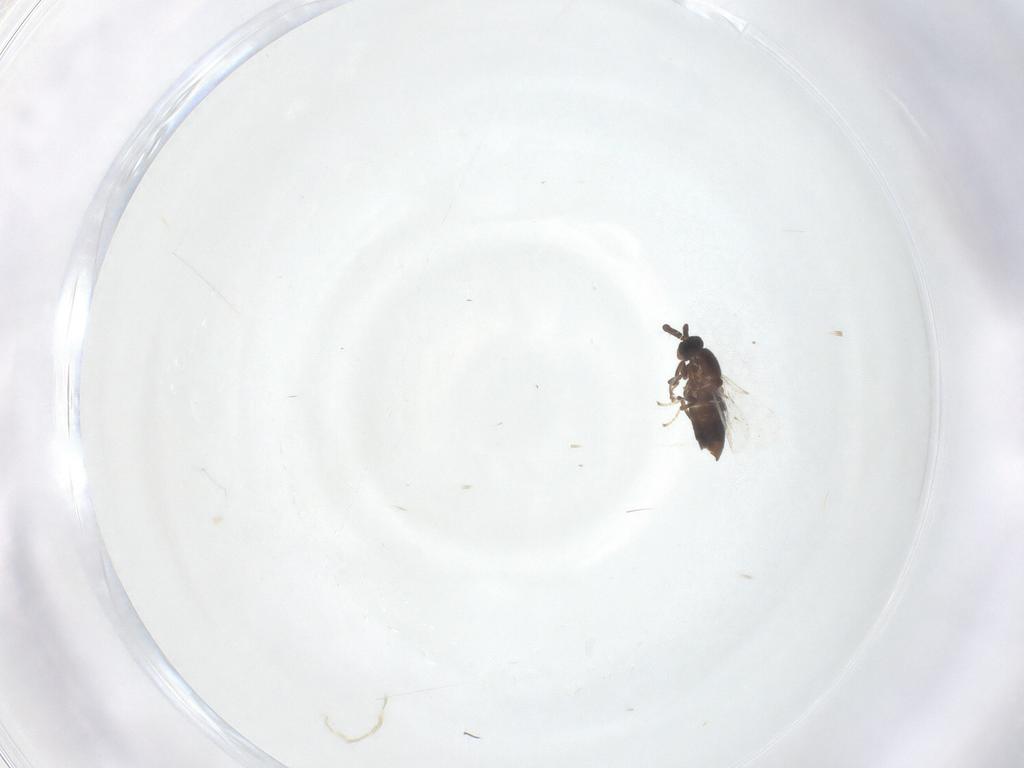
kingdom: Animalia
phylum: Arthropoda
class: Insecta
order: Diptera
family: Scatopsidae
